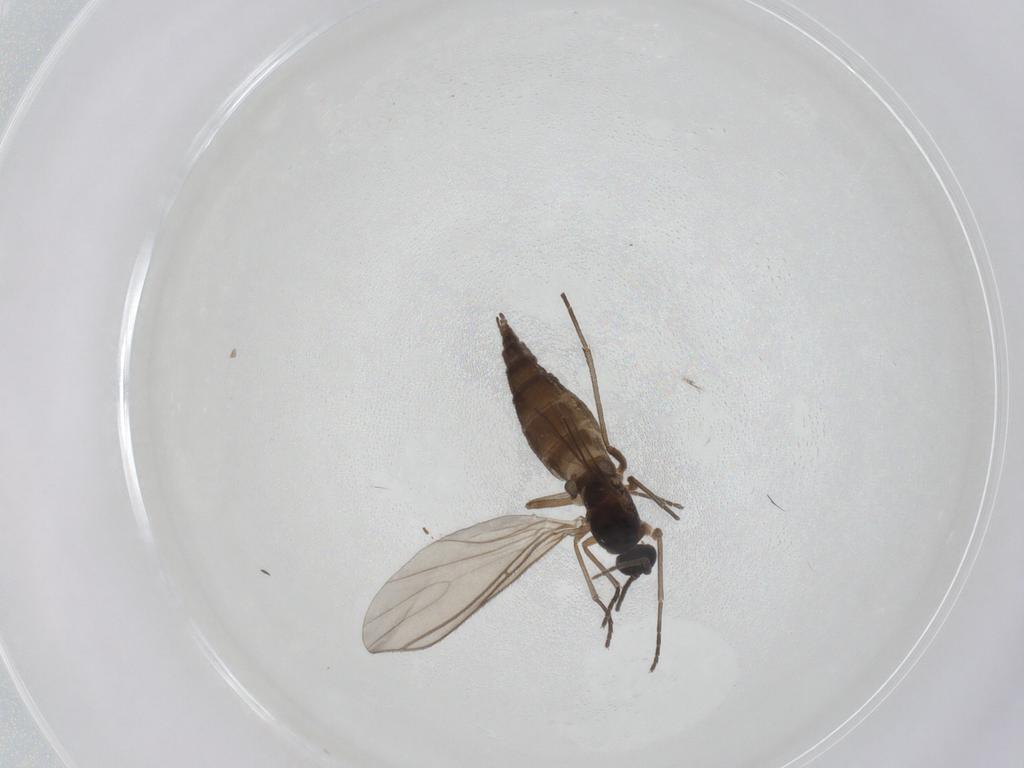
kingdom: Animalia
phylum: Arthropoda
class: Insecta
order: Diptera
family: Sciaridae
